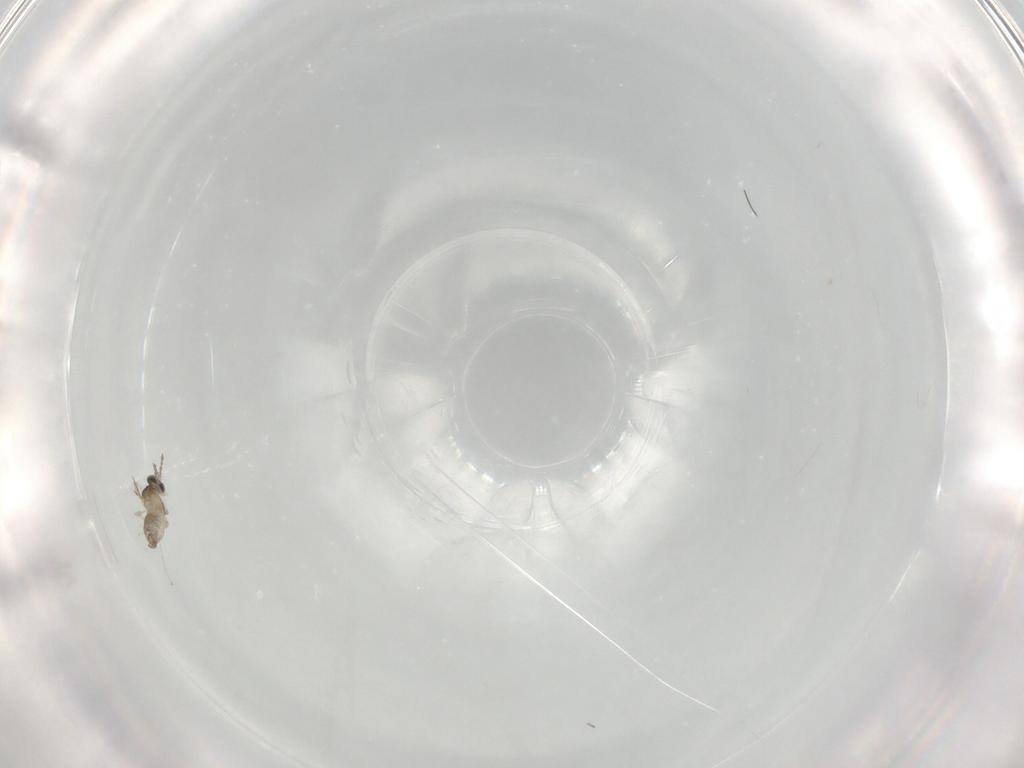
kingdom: Animalia
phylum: Arthropoda
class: Insecta
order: Diptera
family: Cecidomyiidae
